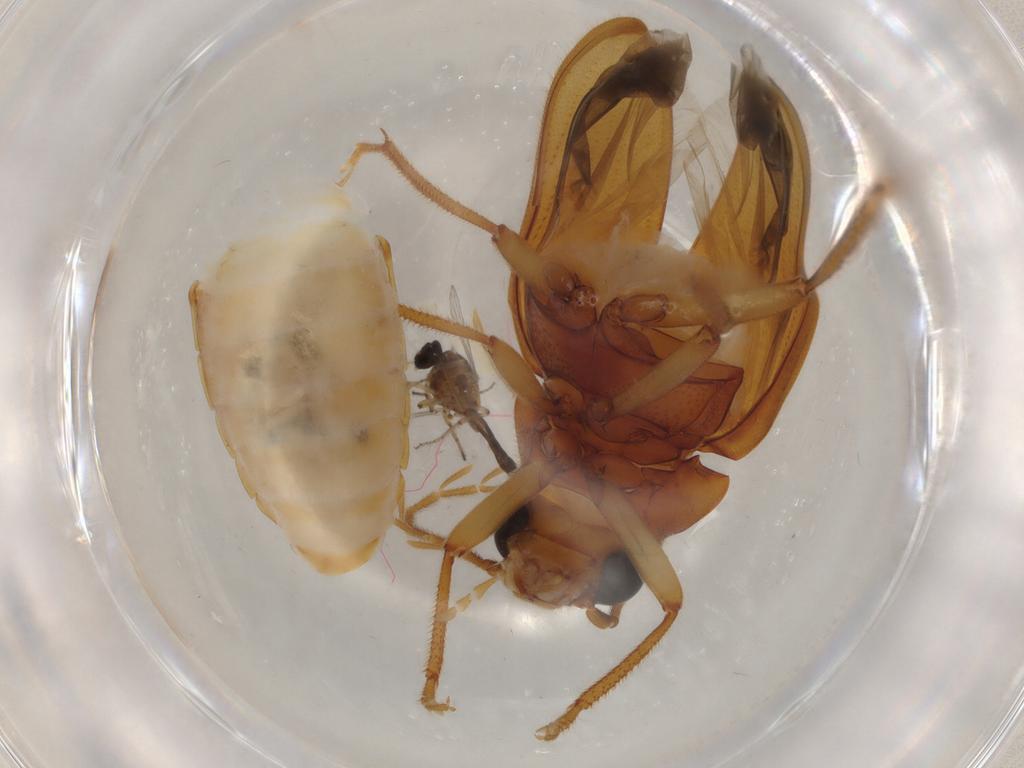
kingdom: Animalia
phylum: Arthropoda
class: Insecta
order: Coleoptera
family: Ptilodactylidae
